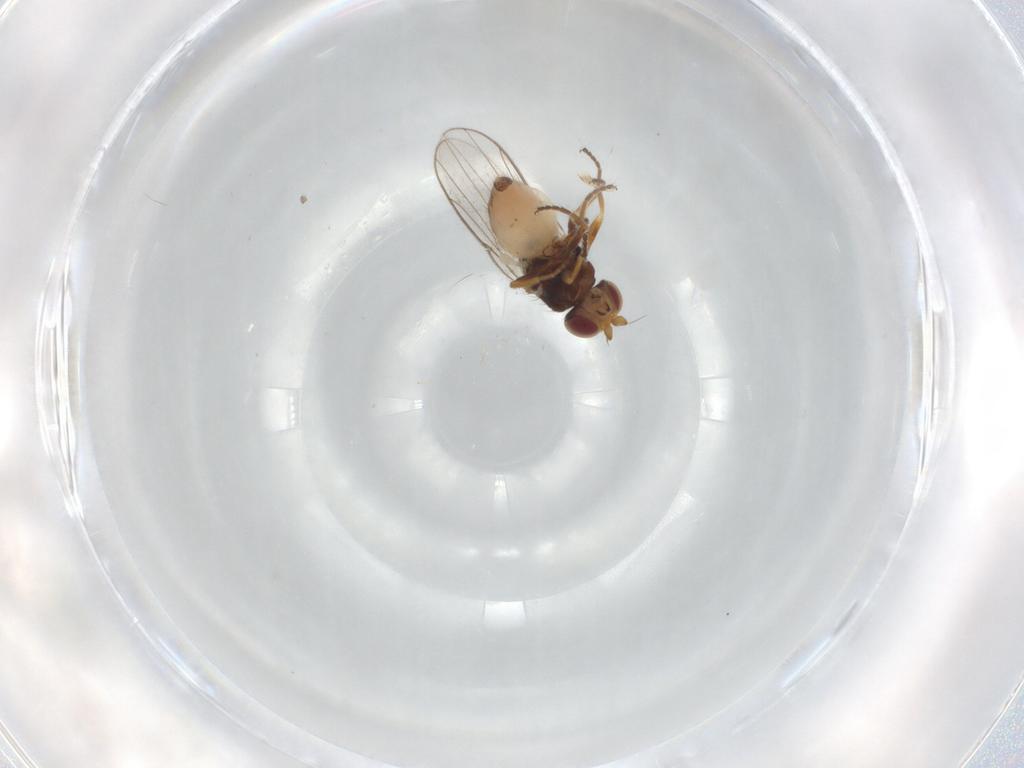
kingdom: Animalia
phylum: Arthropoda
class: Insecta
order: Diptera
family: Chloropidae
